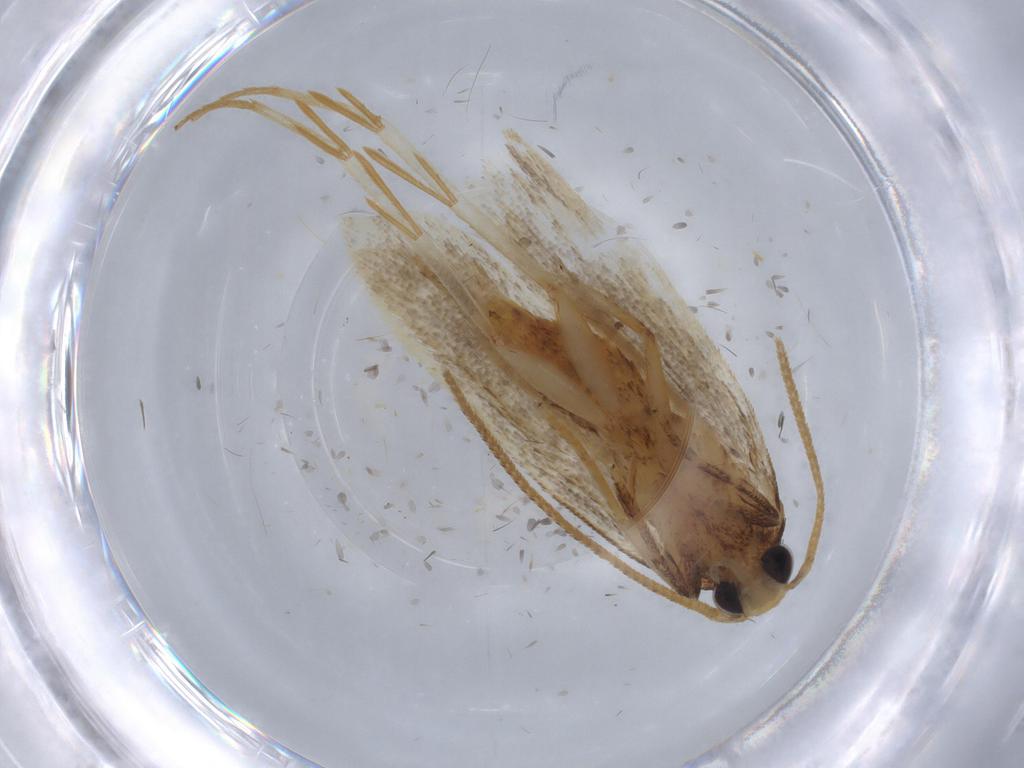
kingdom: Animalia
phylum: Arthropoda
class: Insecta
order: Lepidoptera
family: Autostichidae
